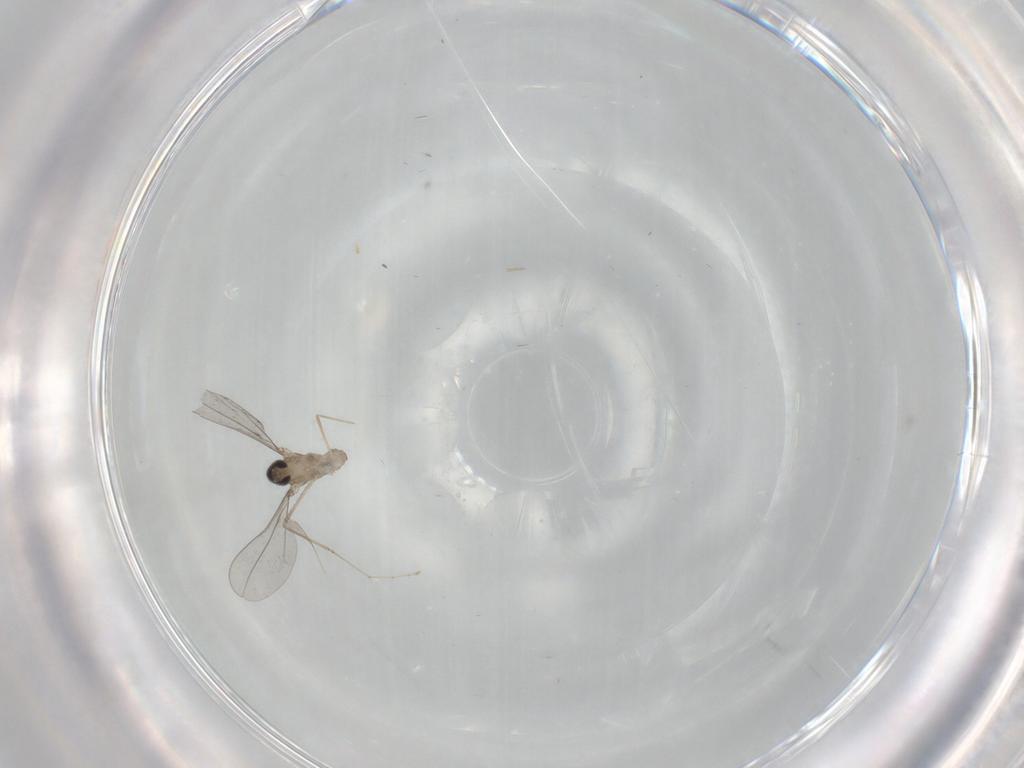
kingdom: Animalia
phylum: Arthropoda
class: Insecta
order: Diptera
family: Cecidomyiidae
